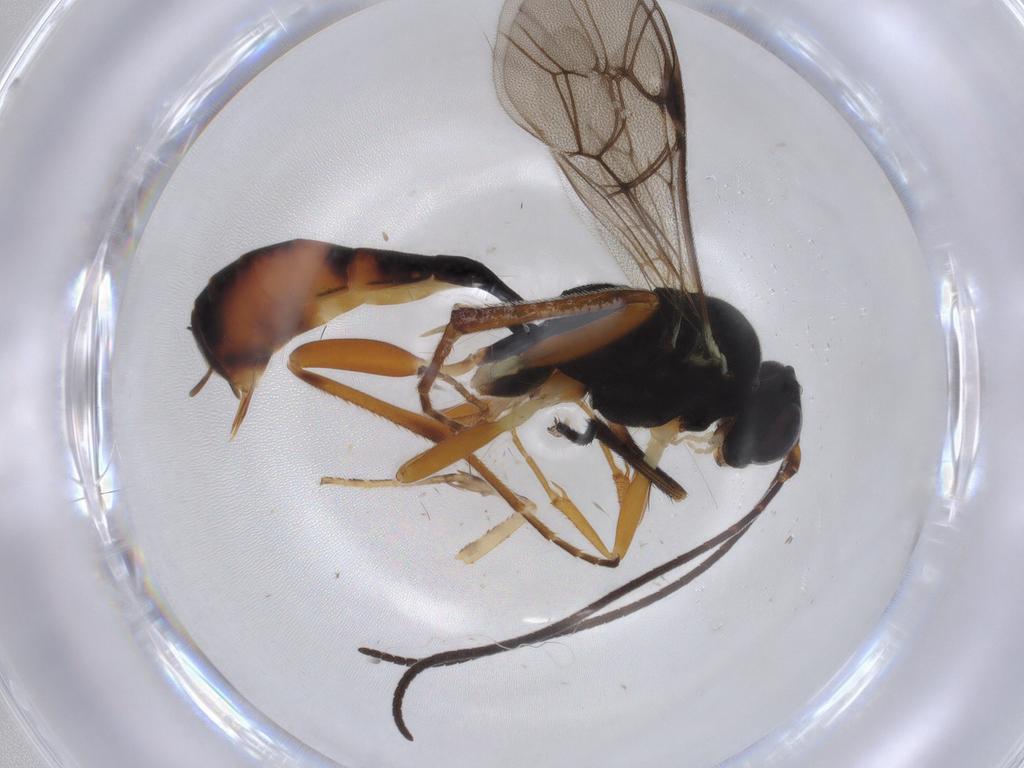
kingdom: Animalia
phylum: Arthropoda
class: Insecta
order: Hymenoptera
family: Ichneumonidae
